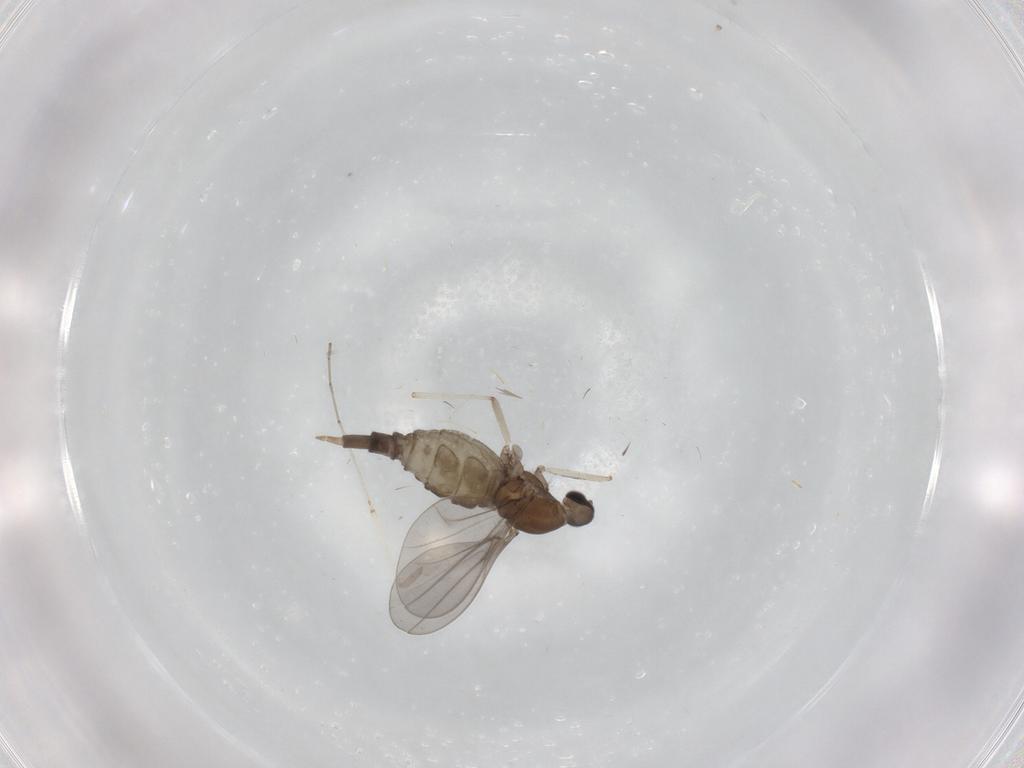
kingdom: Animalia
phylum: Arthropoda
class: Insecta
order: Diptera
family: Cecidomyiidae
